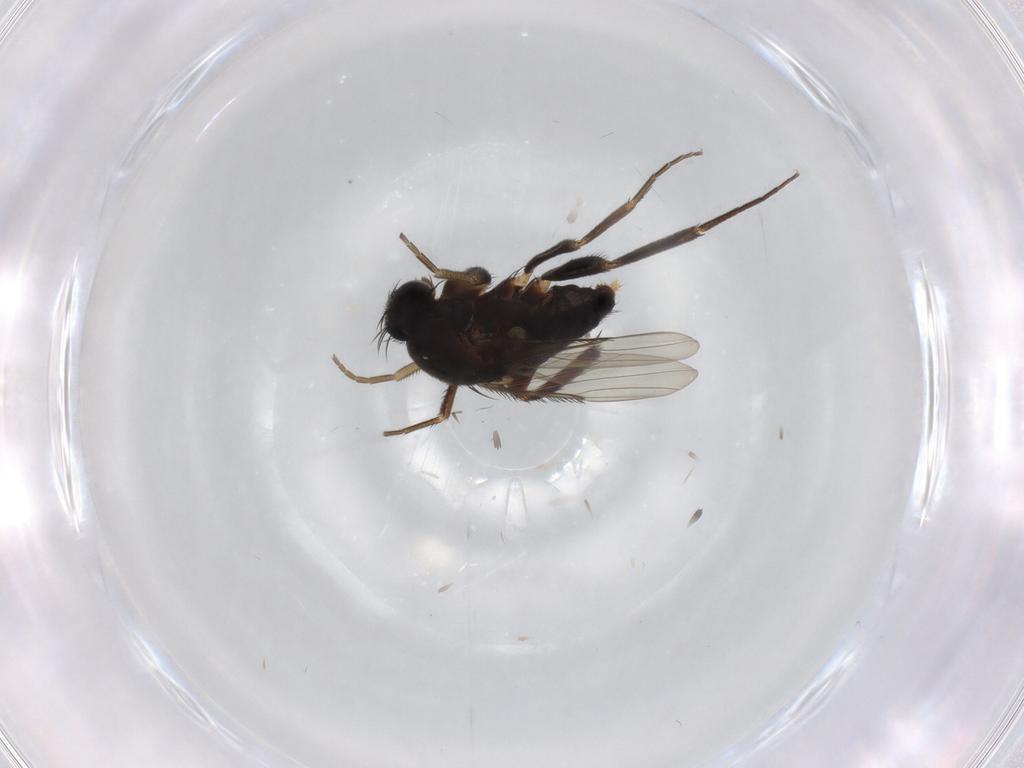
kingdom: Animalia
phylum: Arthropoda
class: Insecta
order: Diptera
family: Phoridae
